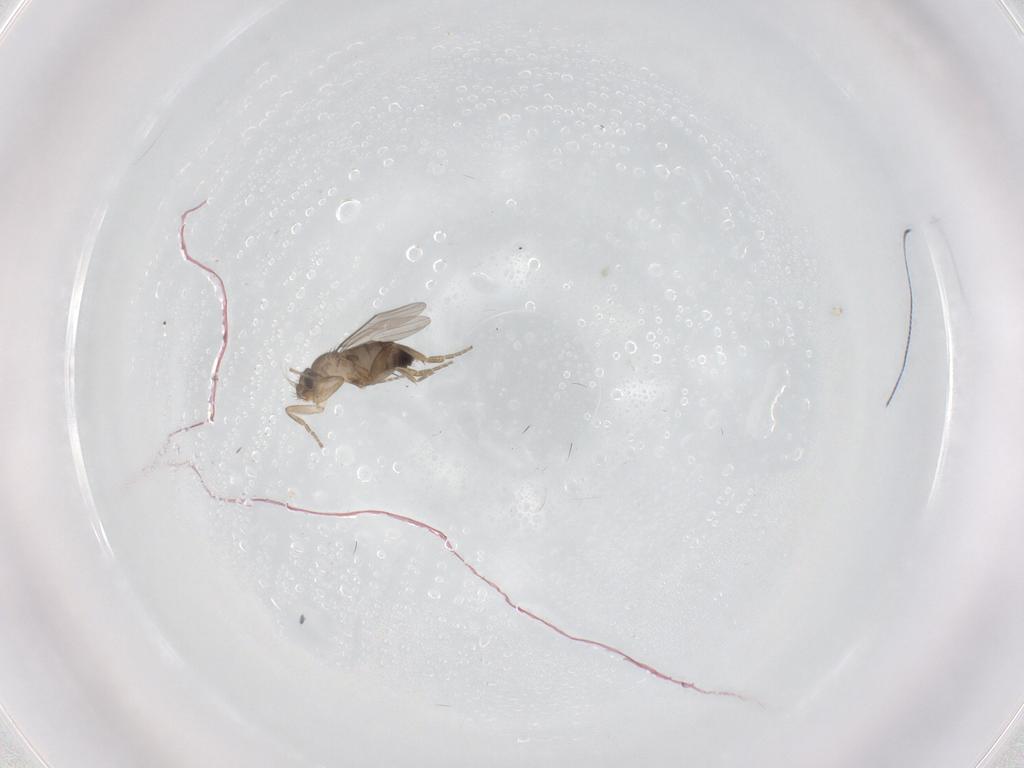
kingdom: Animalia
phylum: Arthropoda
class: Insecta
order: Diptera
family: Phoridae
